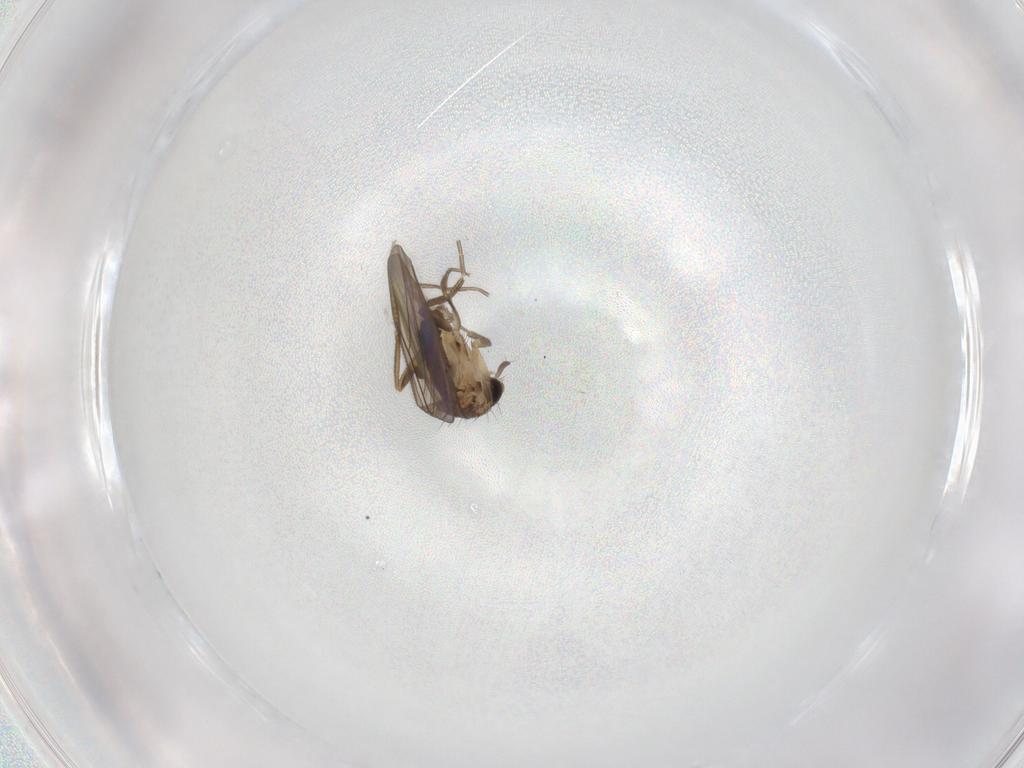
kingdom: Animalia
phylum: Arthropoda
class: Insecta
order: Diptera
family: Phoridae
